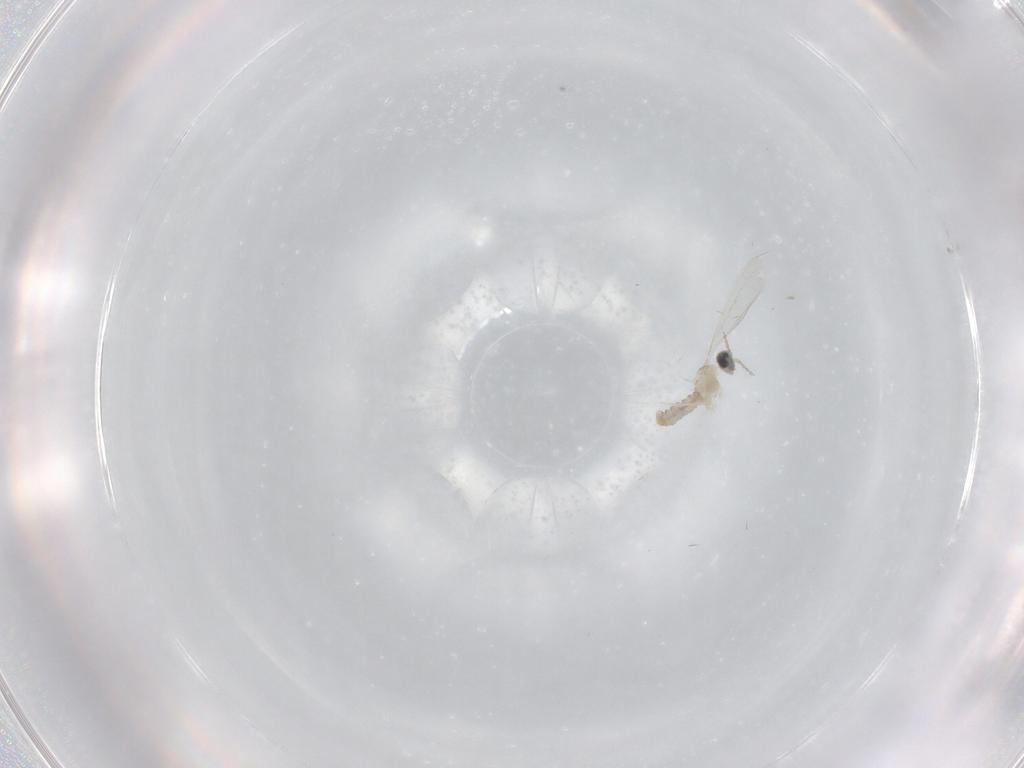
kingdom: Animalia
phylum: Arthropoda
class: Insecta
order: Diptera
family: Cecidomyiidae
